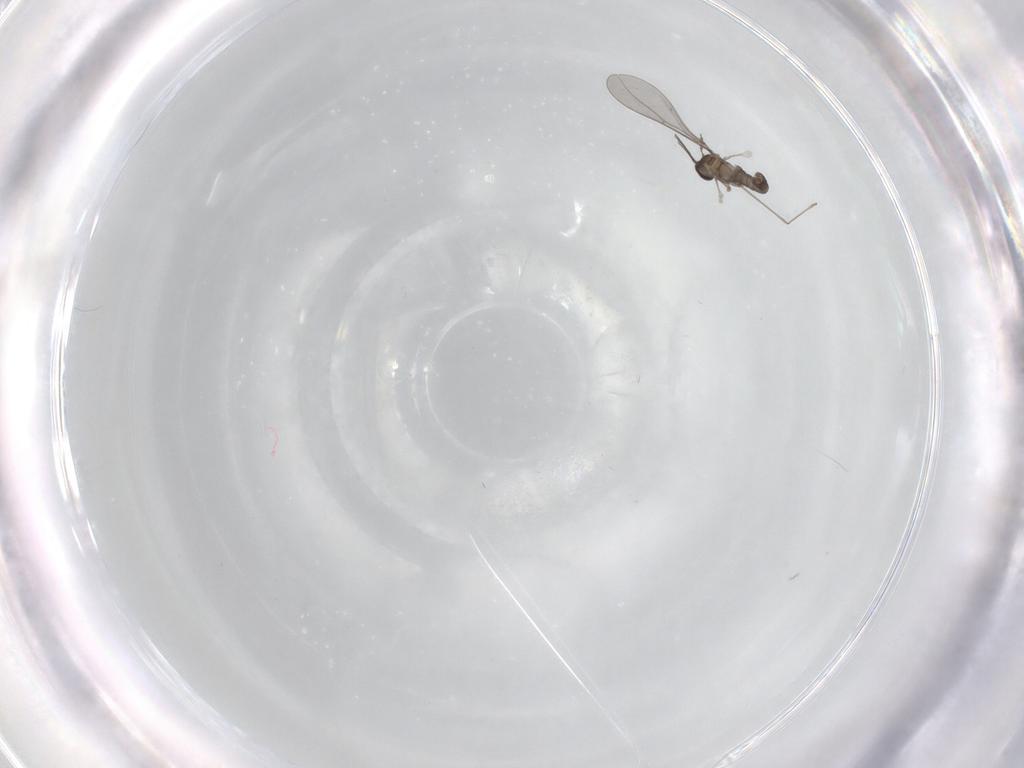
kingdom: Animalia
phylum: Arthropoda
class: Insecta
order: Diptera
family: Cecidomyiidae
